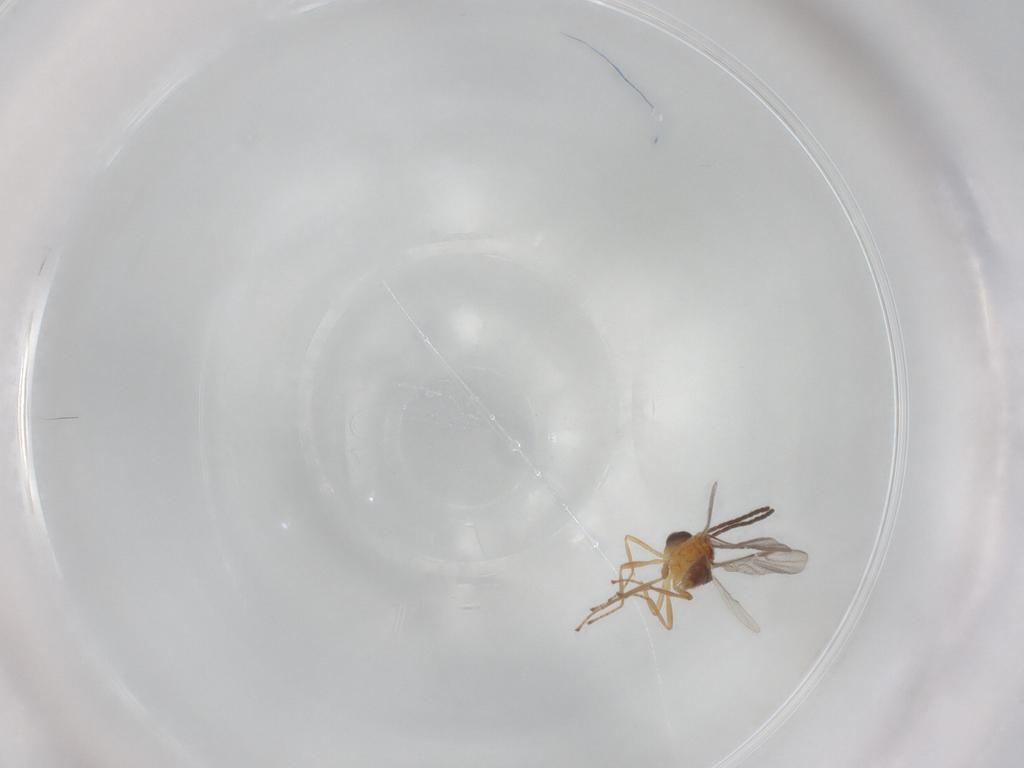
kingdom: Animalia
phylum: Arthropoda
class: Insecta
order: Hymenoptera
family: Braconidae
